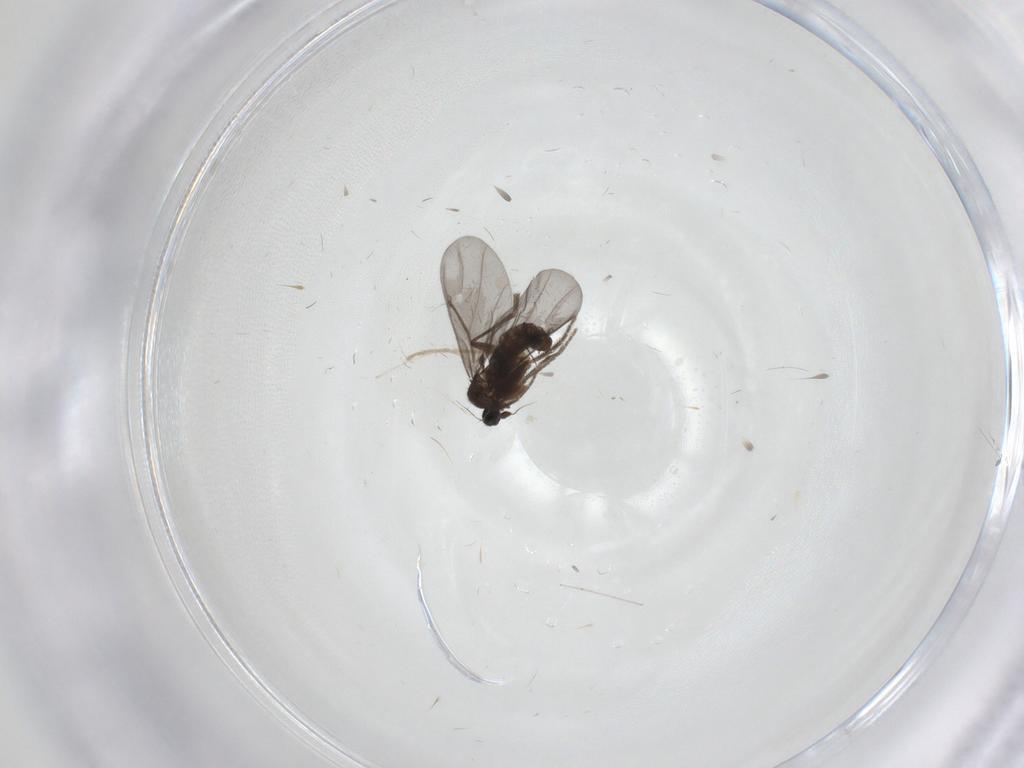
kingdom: Animalia
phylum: Arthropoda
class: Insecta
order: Diptera
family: Phoridae
